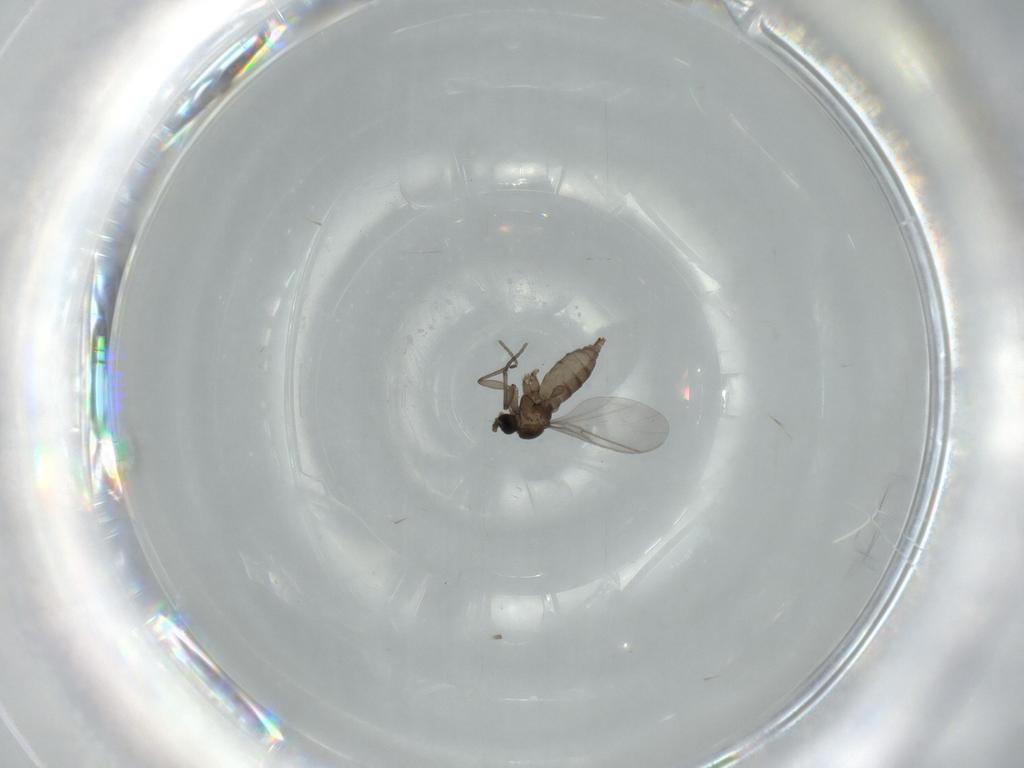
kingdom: Animalia
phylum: Arthropoda
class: Insecta
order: Diptera
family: Sciaridae
